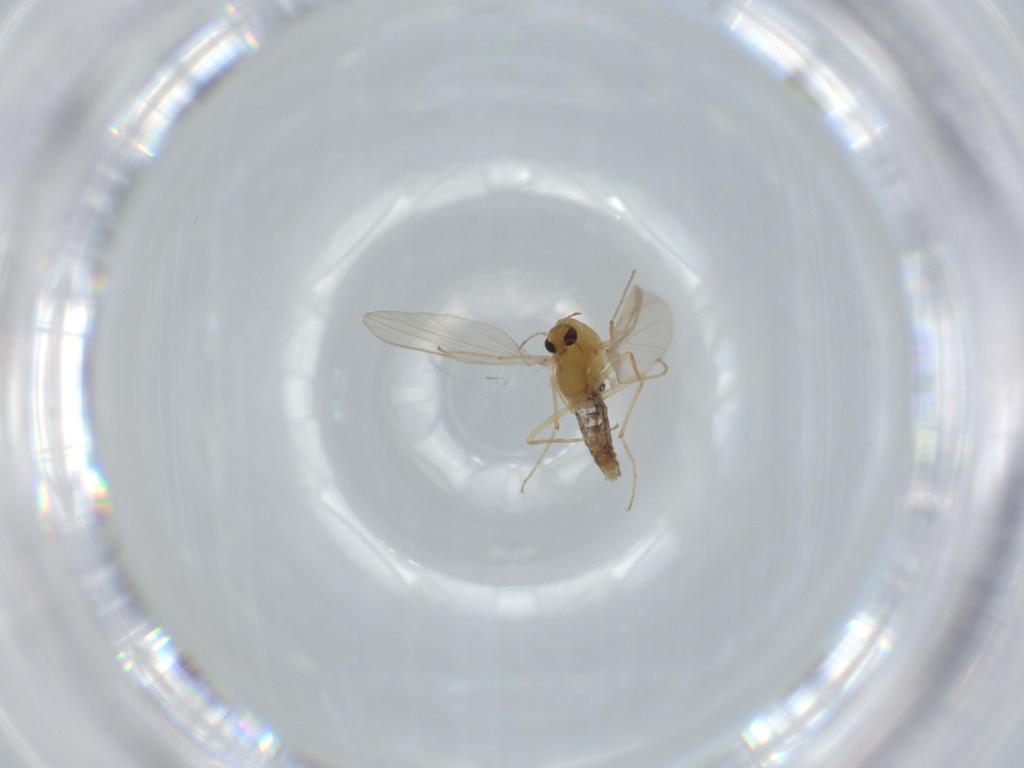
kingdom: Animalia
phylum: Arthropoda
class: Insecta
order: Diptera
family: Chironomidae
